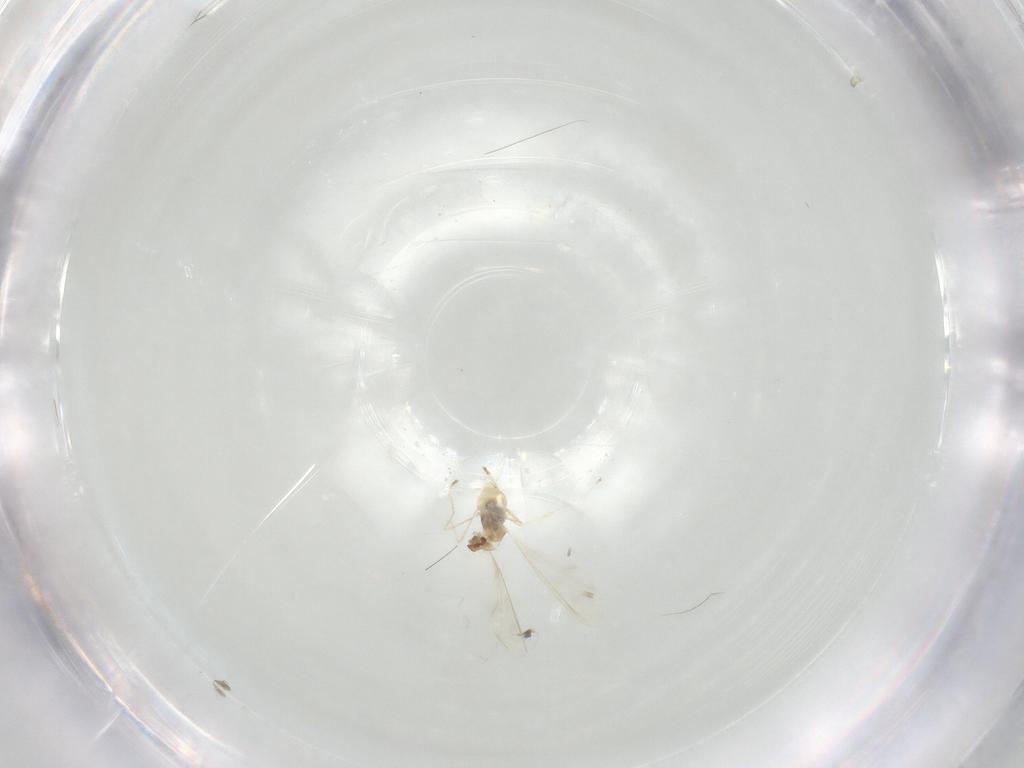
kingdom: Animalia
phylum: Arthropoda
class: Insecta
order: Diptera
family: Cecidomyiidae
